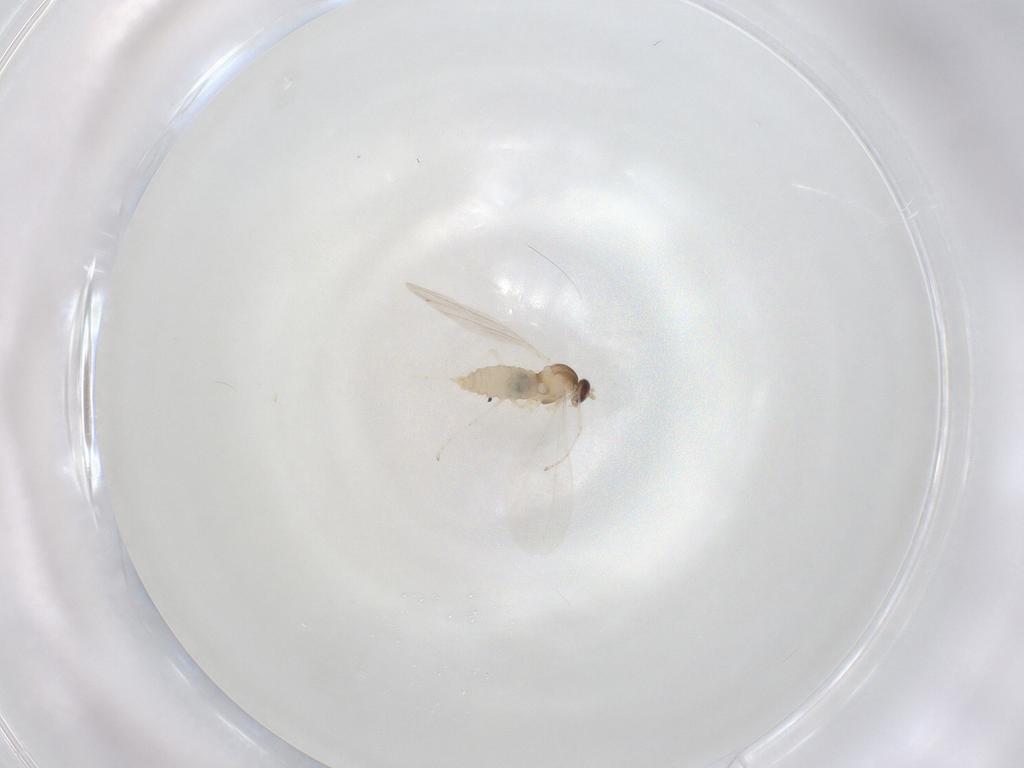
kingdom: Animalia
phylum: Arthropoda
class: Insecta
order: Diptera
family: Cecidomyiidae
